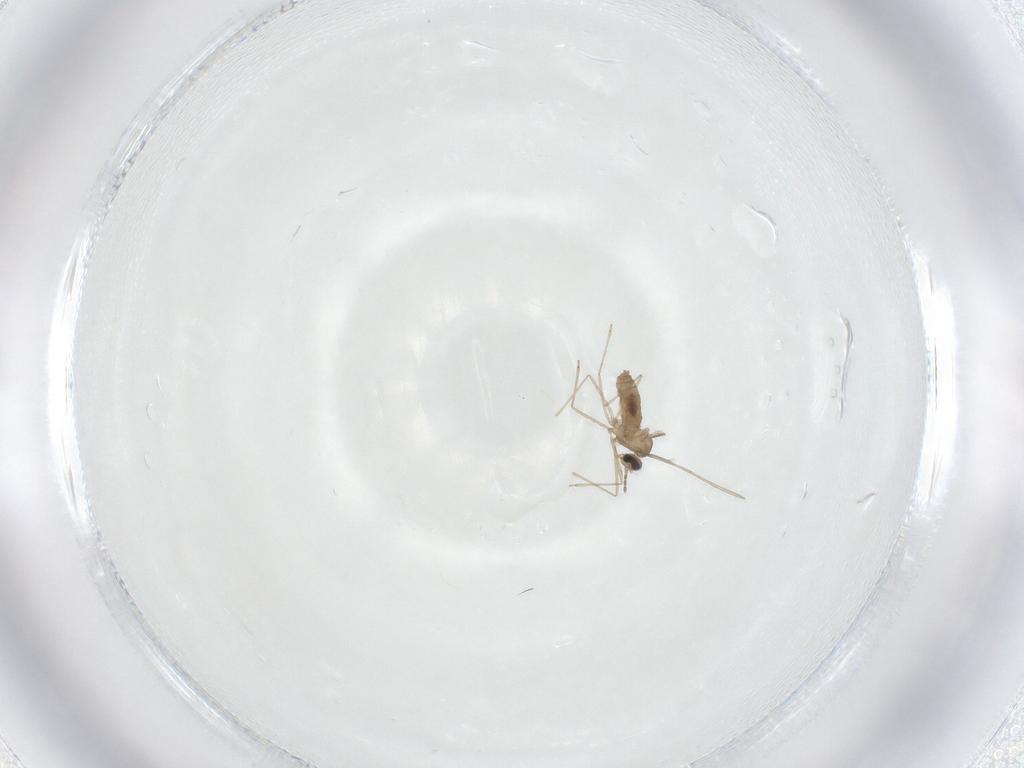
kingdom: Animalia
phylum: Arthropoda
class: Insecta
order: Diptera
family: Cecidomyiidae
